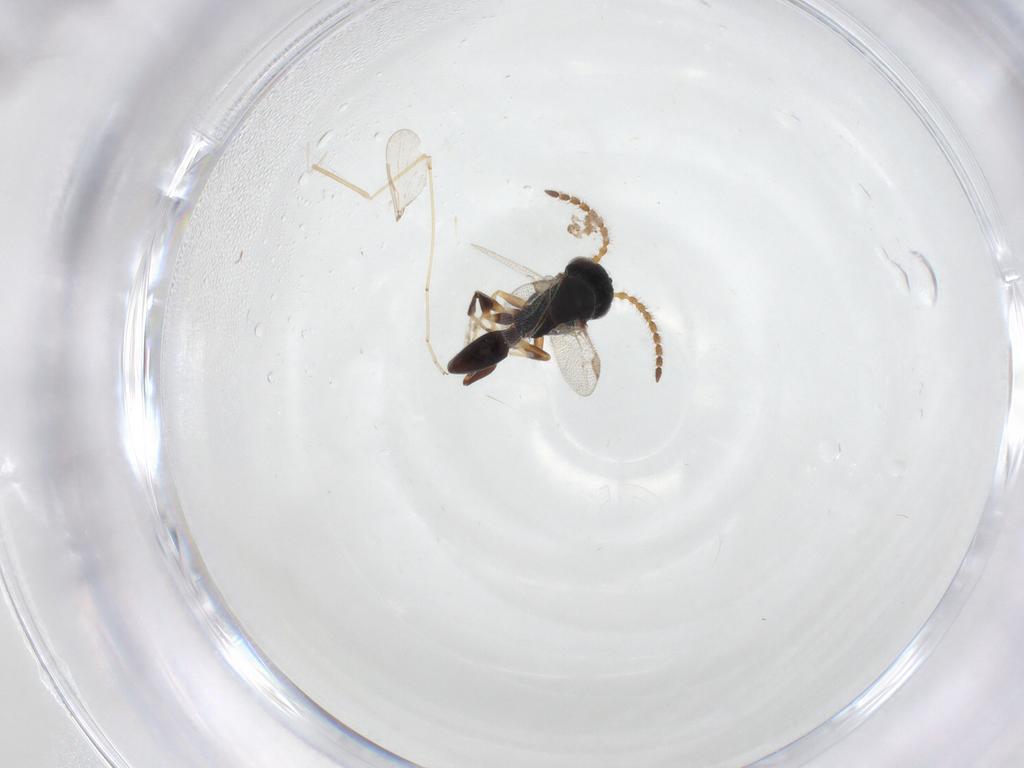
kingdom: Animalia
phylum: Arthropoda
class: Insecta
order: Hymenoptera
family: Dryinidae
